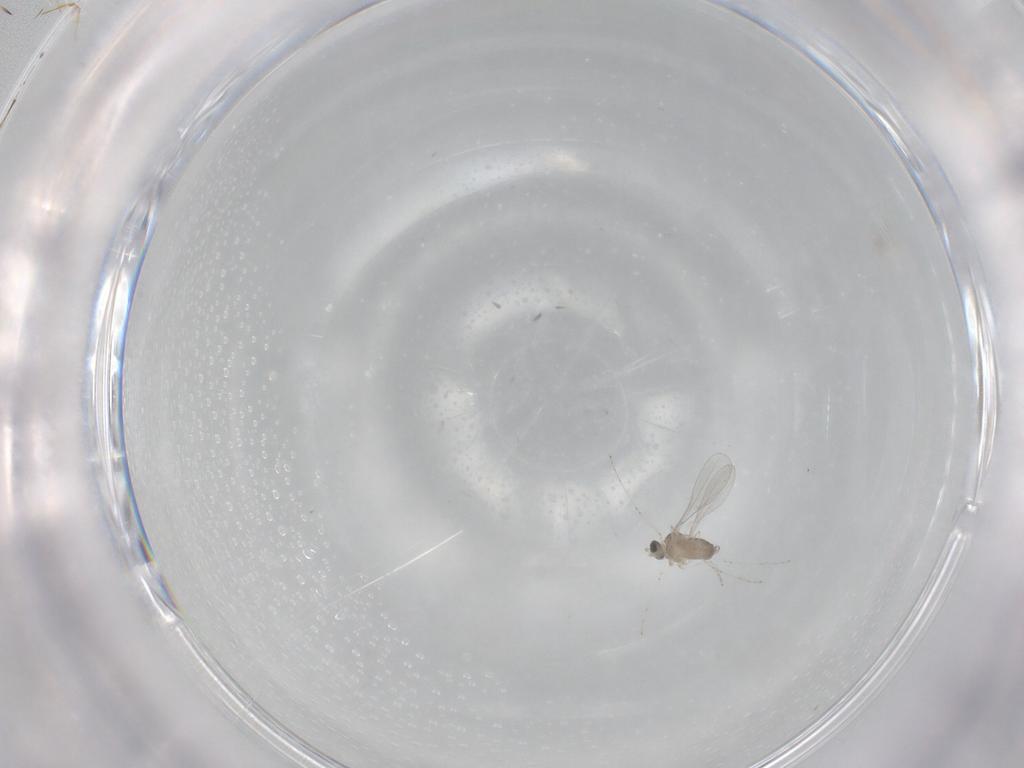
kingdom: Animalia
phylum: Arthropoda
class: Insecta
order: Diptera
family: Cecidomyiidae
